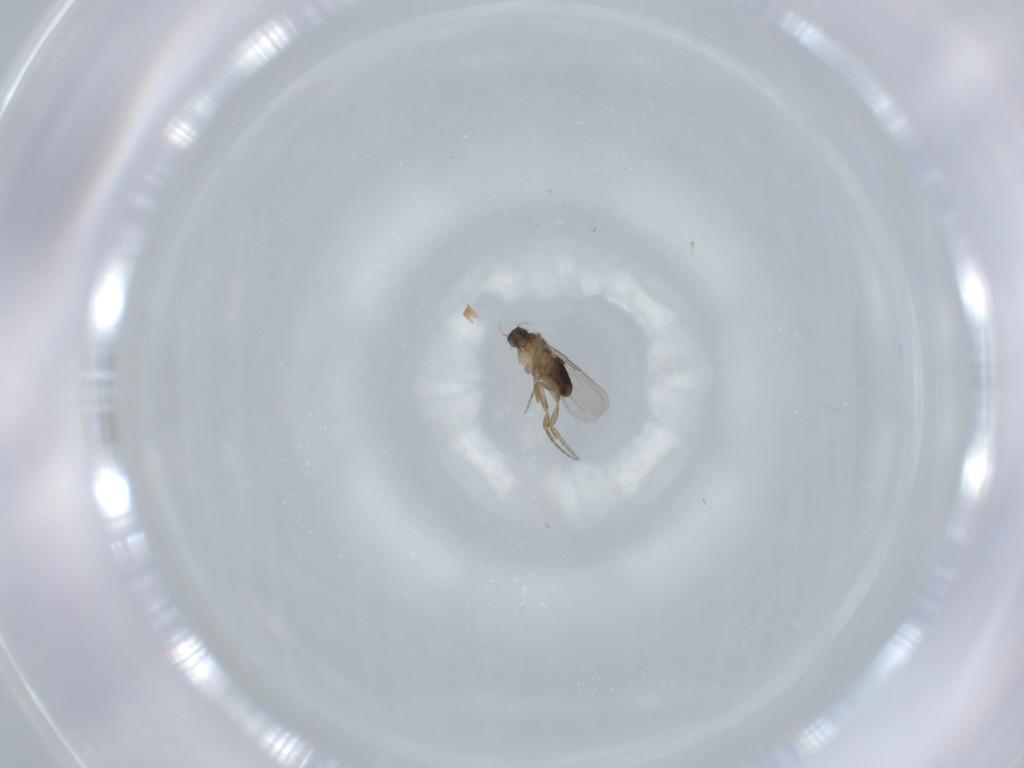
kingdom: Animalia
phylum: Arthropoda
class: Insecta
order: Diptera
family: Phoridae
